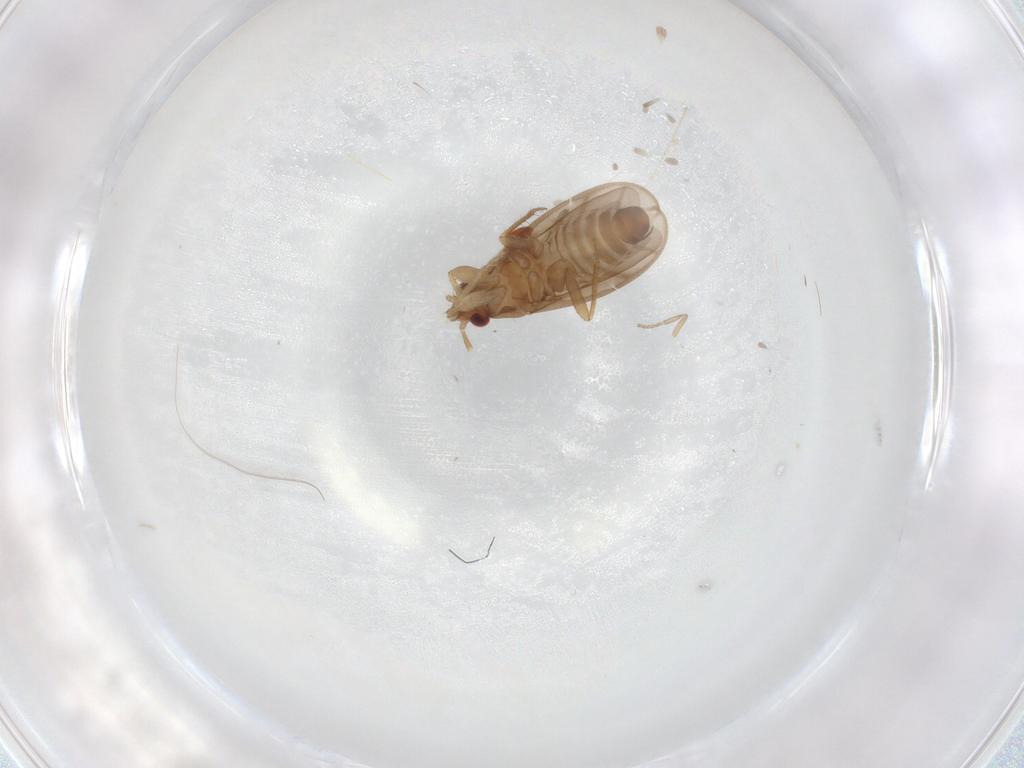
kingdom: Animalia
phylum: Arthropoda
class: Insecta
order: Hemiptera
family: Ceratocombidae
